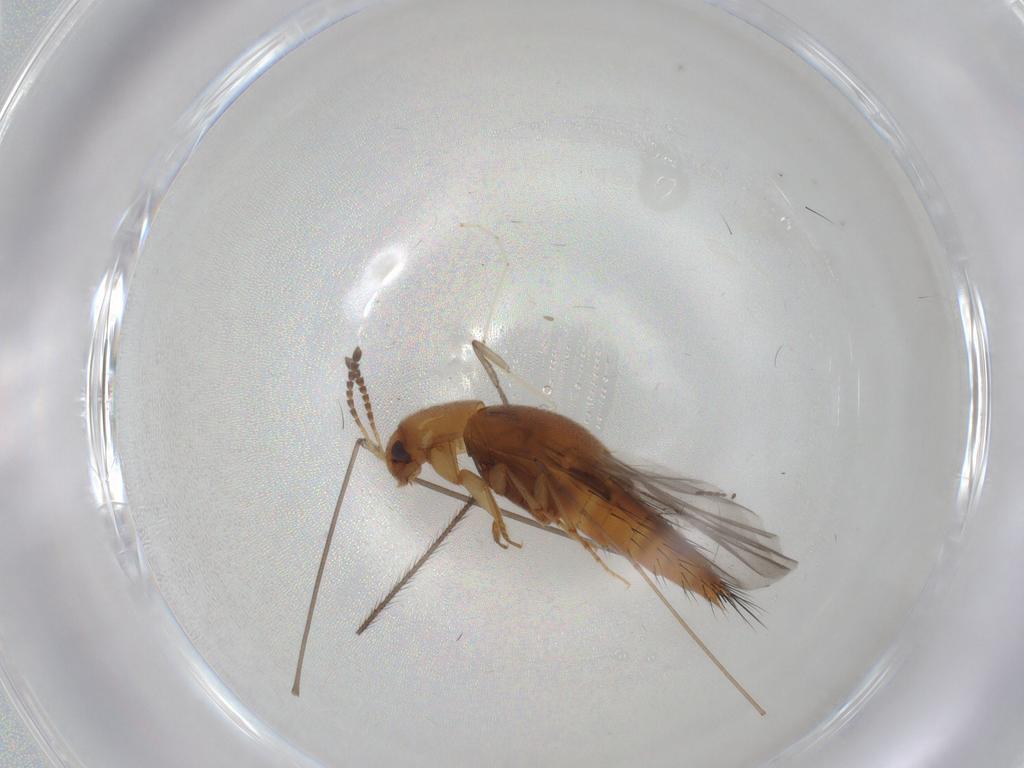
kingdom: Animalia
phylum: Arthropoda
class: Insecta
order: Coleoptera
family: Staphylinidae
